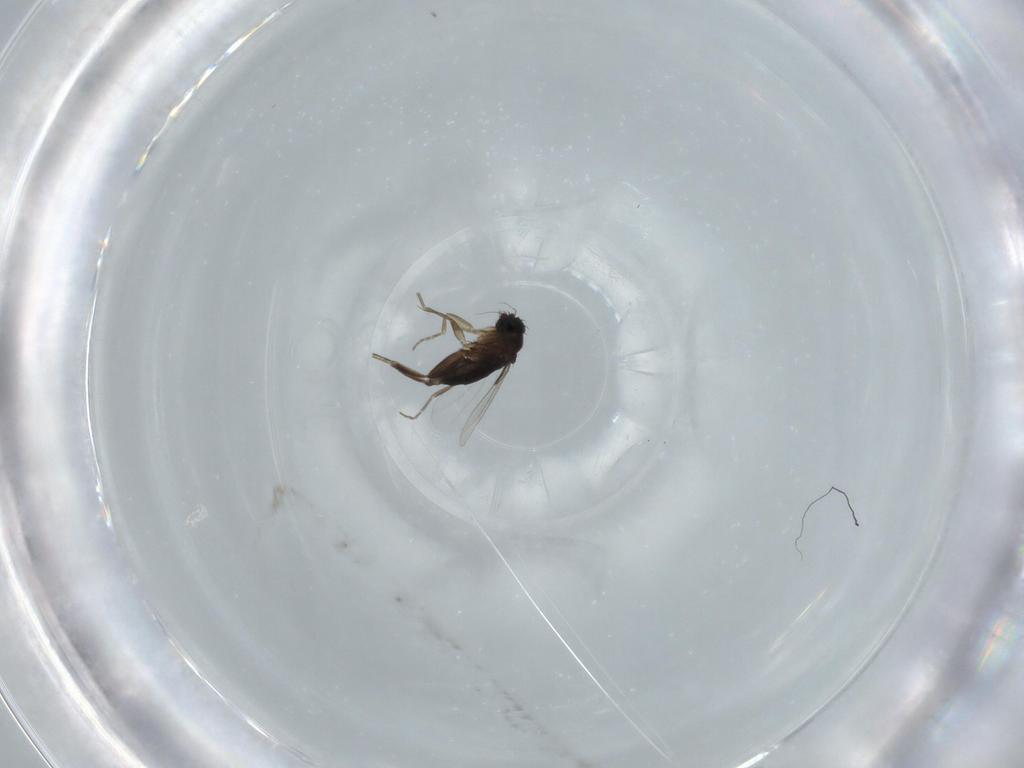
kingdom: Animalia
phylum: Arthropoda
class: Insecta
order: Diptera
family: Phoridae
